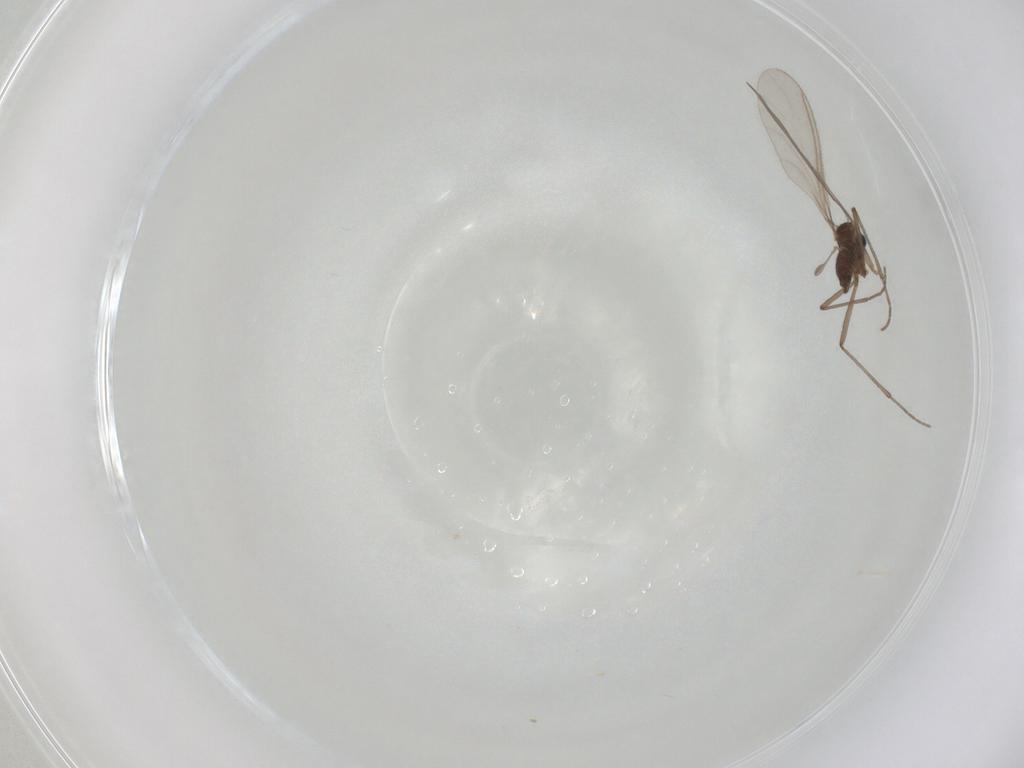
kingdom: Animalia
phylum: Arthropoda
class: Insecta
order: Diptera
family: Sciaridae
